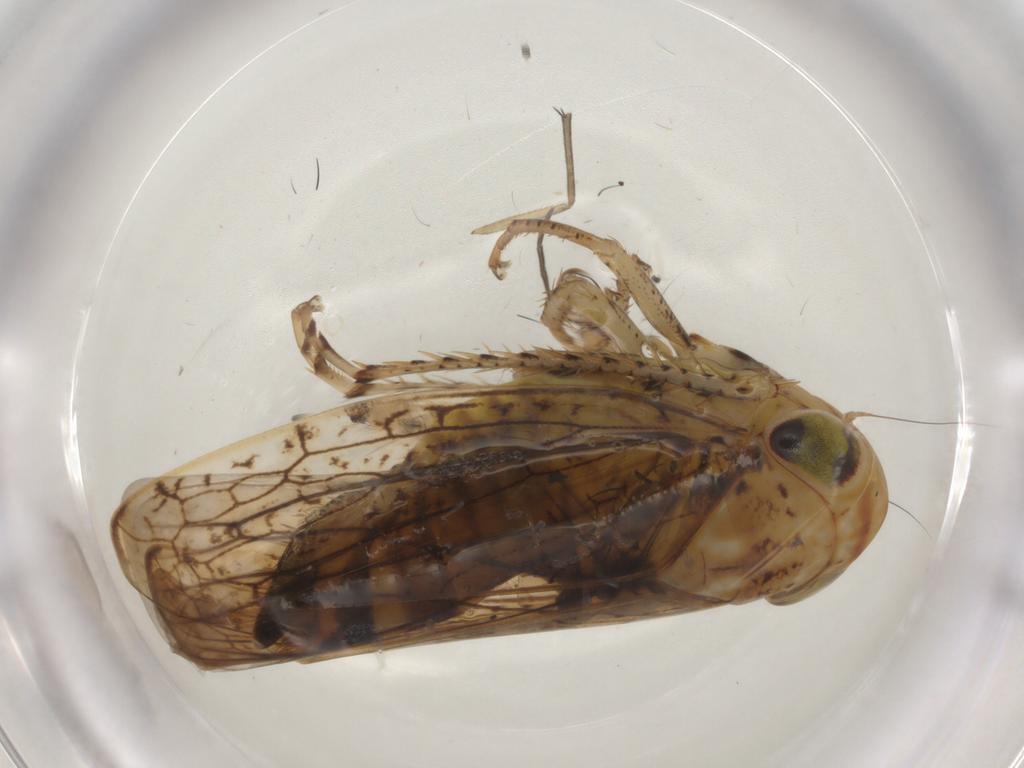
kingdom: Animalia
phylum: Arthropoda
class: Insecta
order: Hemiptera
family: Cicadellidae
